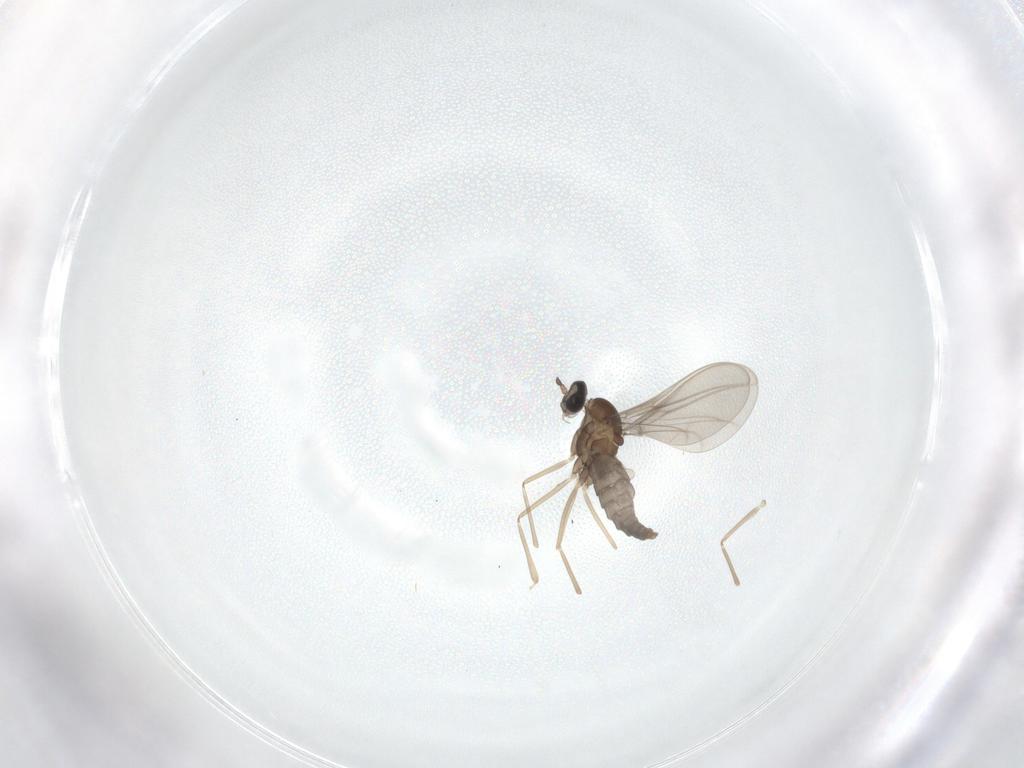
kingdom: Animalia
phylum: Arthropoda
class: Insecta
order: Diptera
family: Cecidomyiidae
